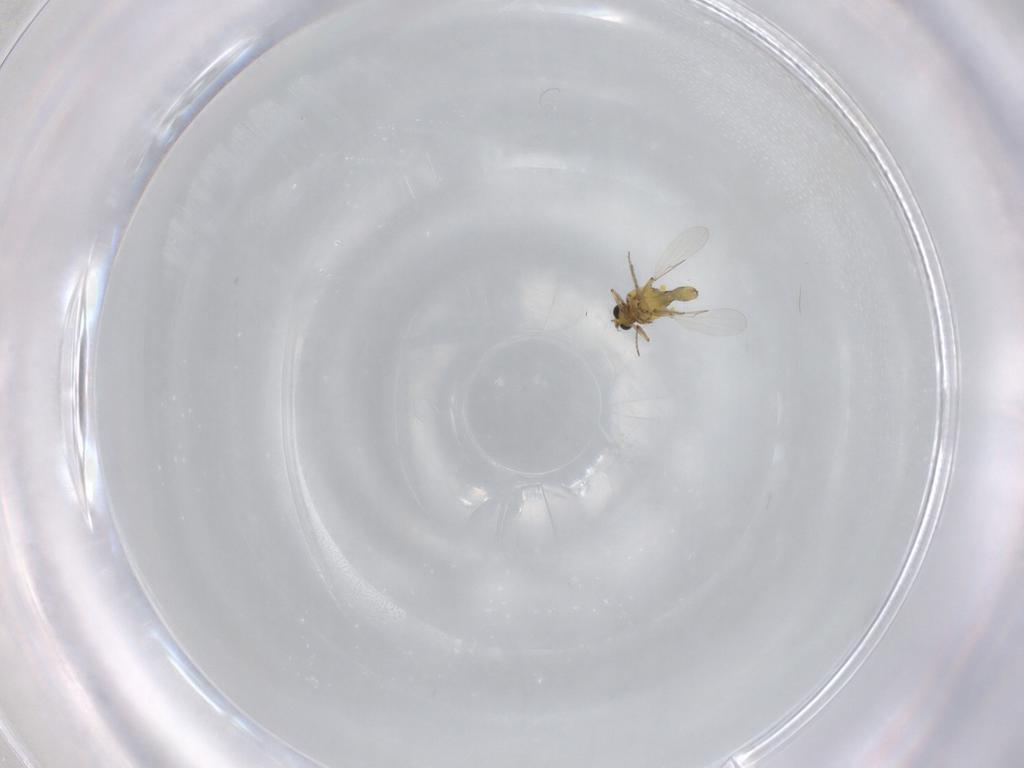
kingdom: Animalia
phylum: Arthropoda
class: Insecta
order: Diptera
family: Ceratopogonidae
